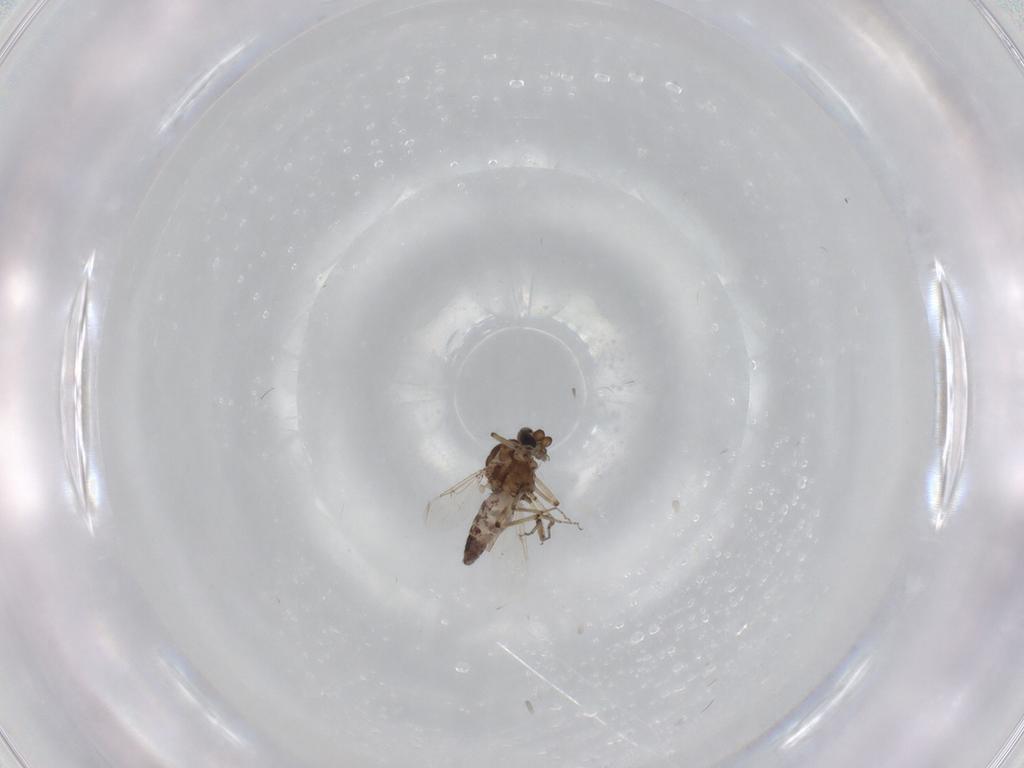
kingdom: Animalia
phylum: Arthropoda
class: Insecta
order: Diptera
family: Ceratopogonidae
